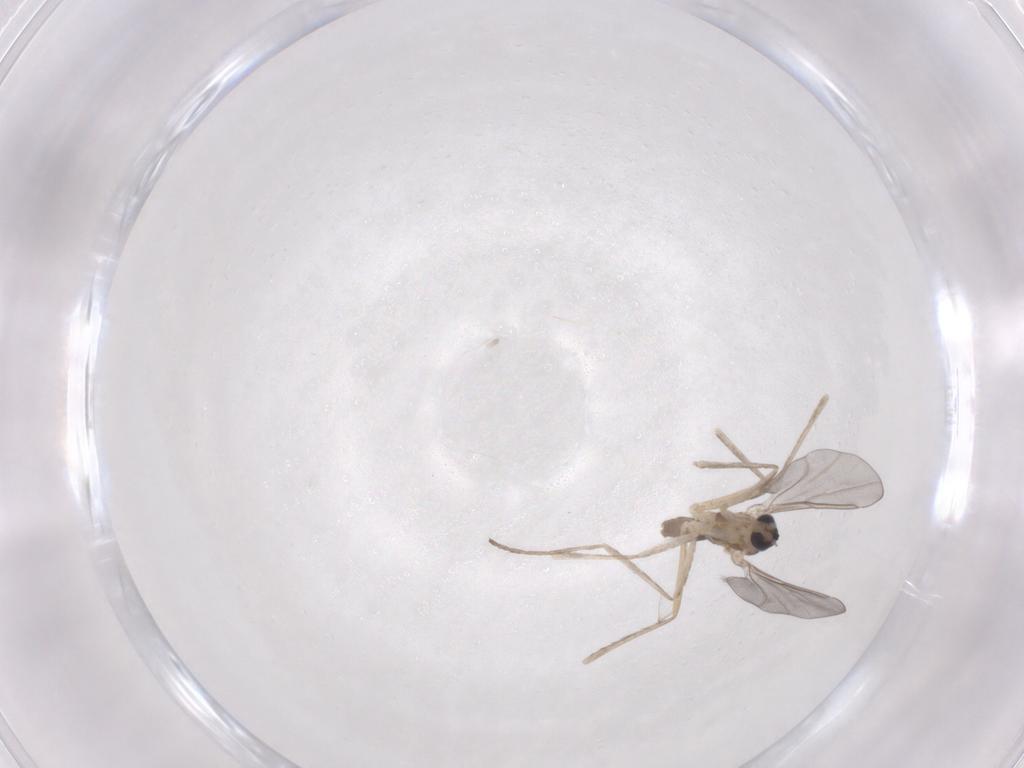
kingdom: Animalia
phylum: Arthropoda
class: Insecta
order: Diptera
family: Cecidomyiidae
